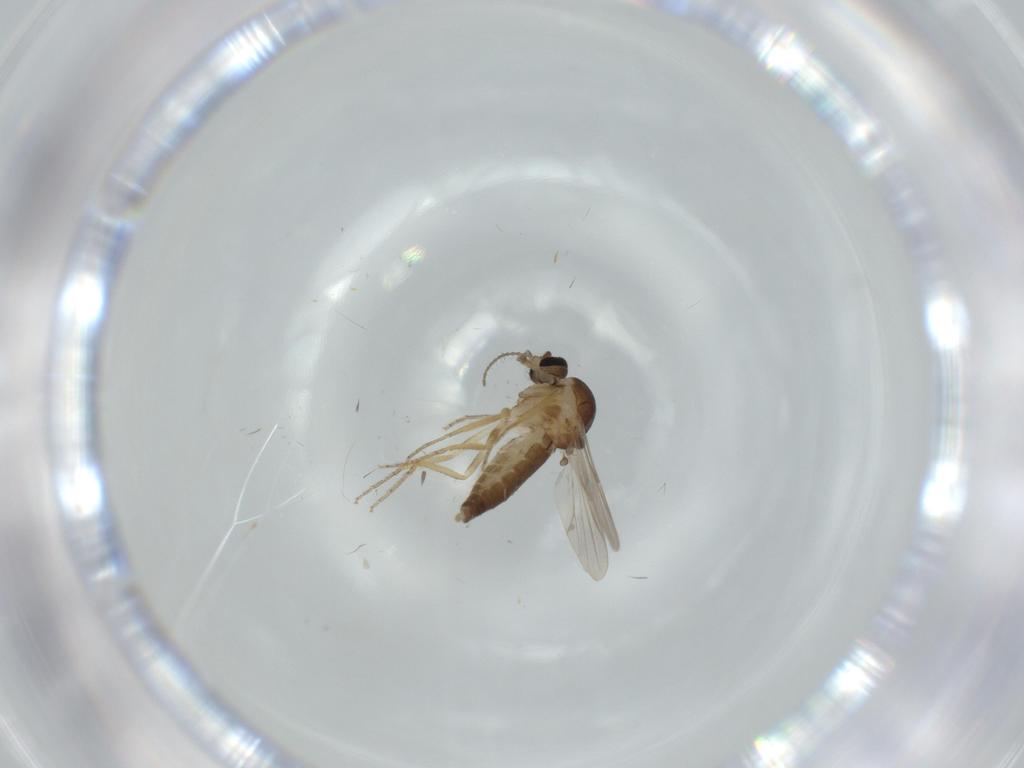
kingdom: Animalia
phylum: Arthropoda
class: Insecta
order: Diptera
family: Ceratopogonidae
